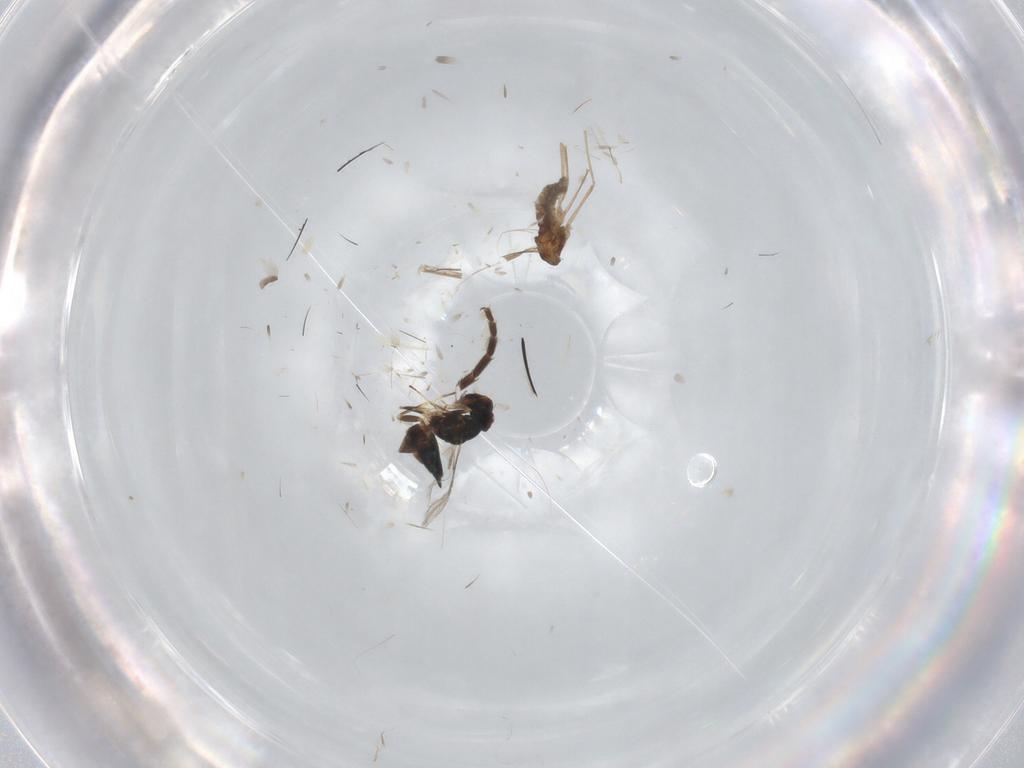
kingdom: Animalia
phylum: Arthropoda
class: Insecta
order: Hymenoptera
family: Eulophidae
